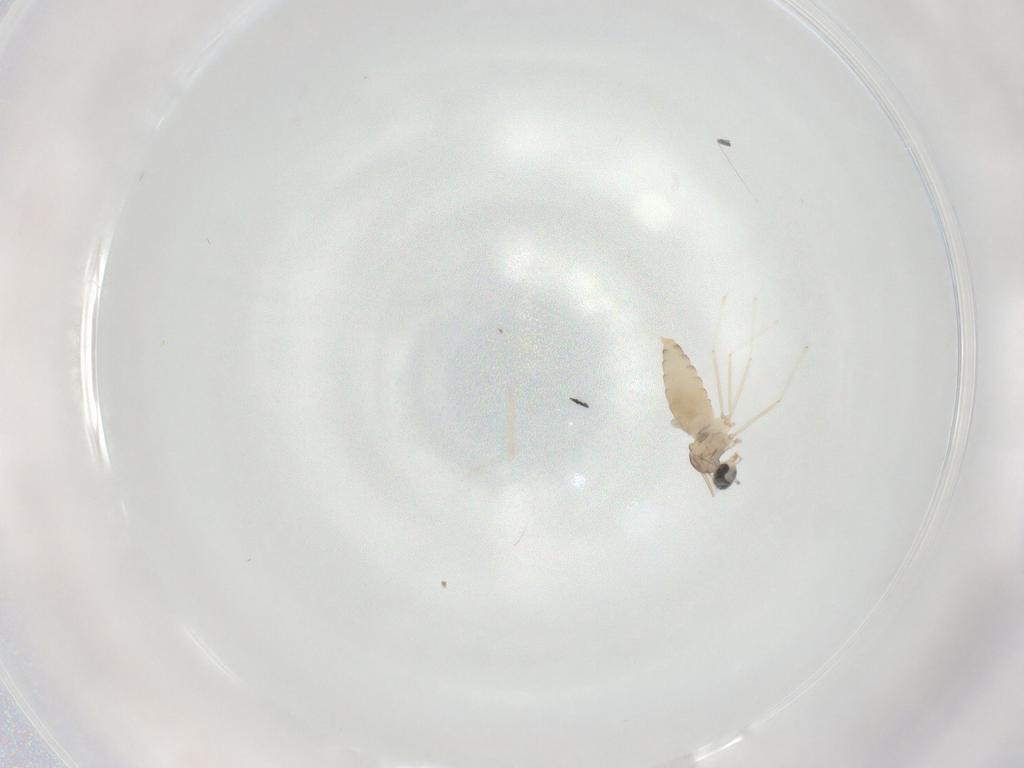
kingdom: Animalia
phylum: Arthropoda
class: Insecta
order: Diptera
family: Cecidomyiidae
